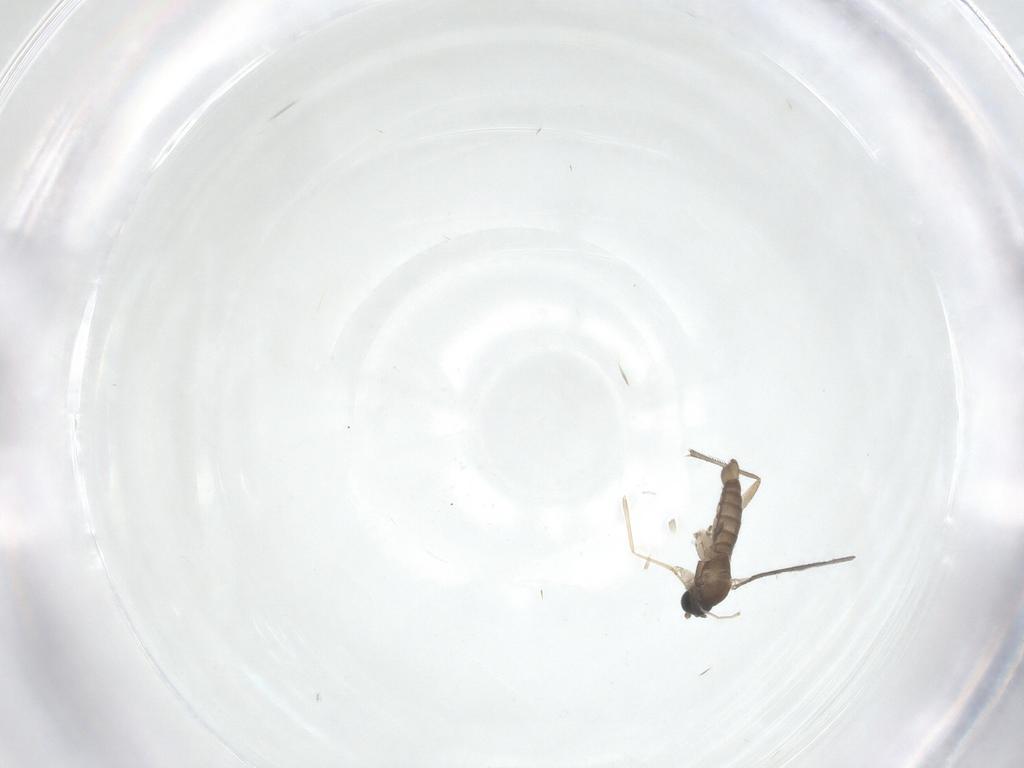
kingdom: Animalia
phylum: Arthropoda
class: Insecta
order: Diptera
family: Sciaridae
